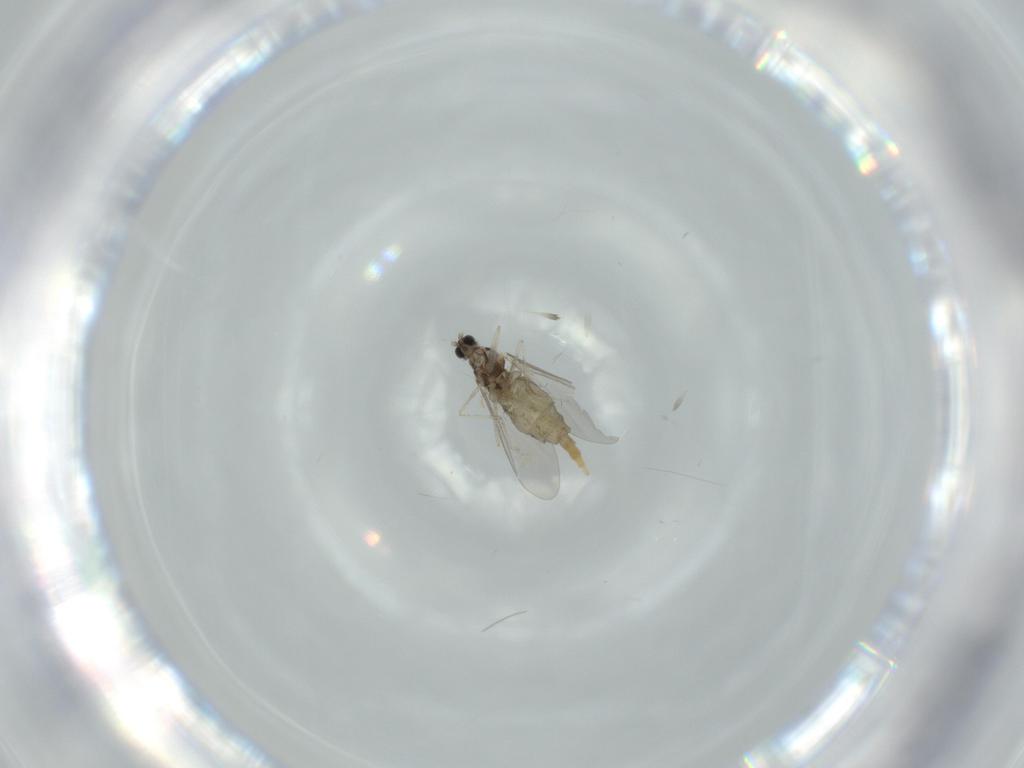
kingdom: Animalia
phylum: Arthropoda
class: Insecta
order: Diptera
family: Cecidomyiidae
